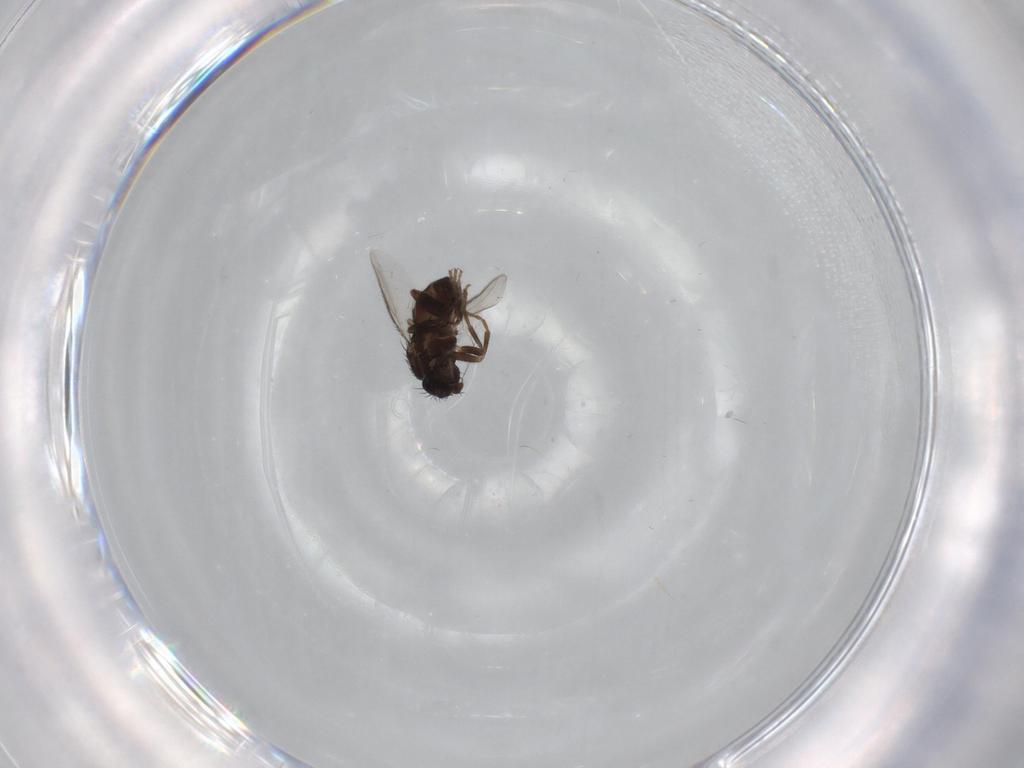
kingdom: Animalia
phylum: Arthropoda
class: Insecta
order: Diptera
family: Sphaeroceridae
